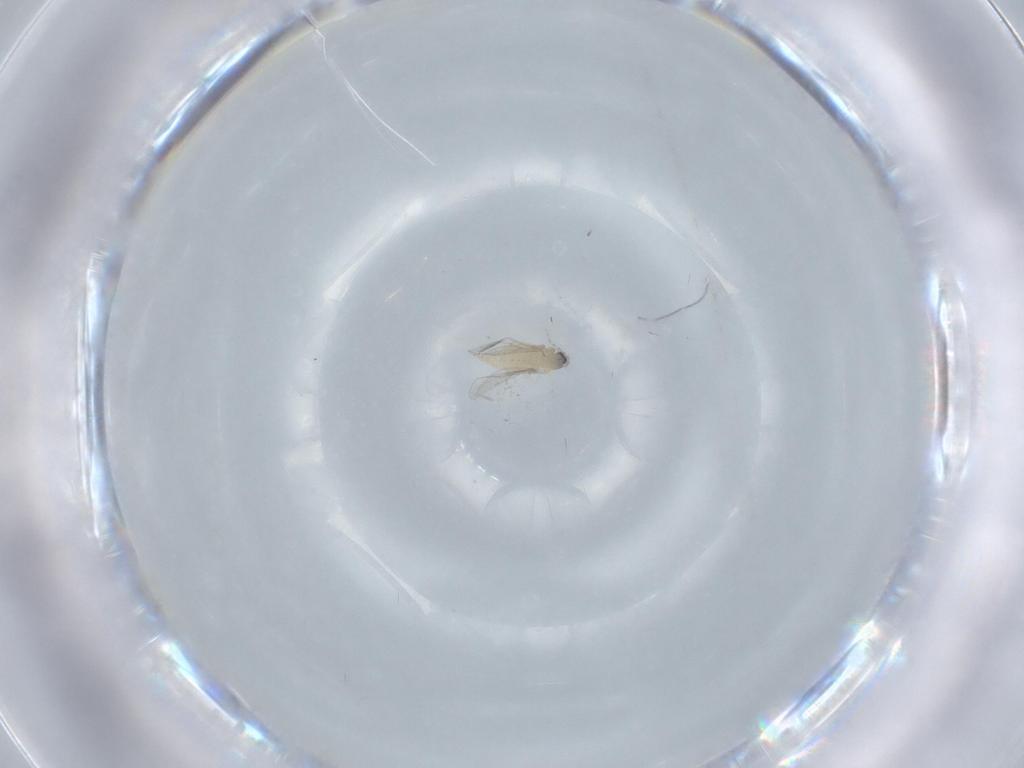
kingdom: Animalia
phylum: Arthropoda
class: Insecta
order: Diptera
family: Cecidomyiidae
